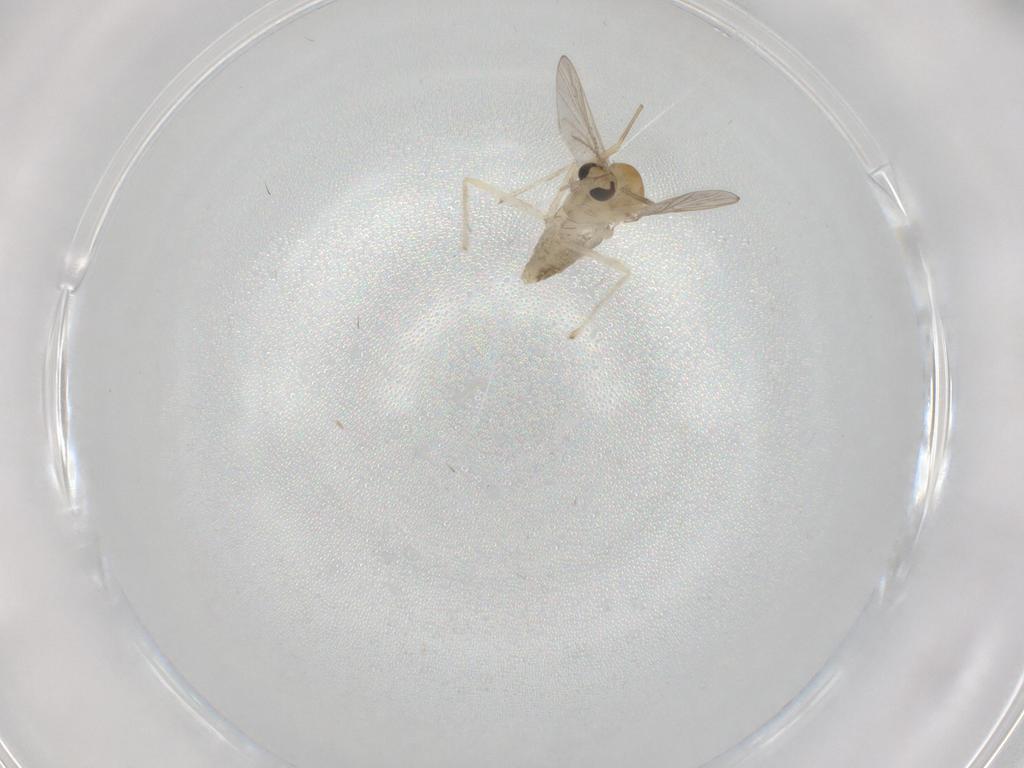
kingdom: Animalia
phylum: Arthropoda
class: Insecta
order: Diptera
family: Chironomidae
